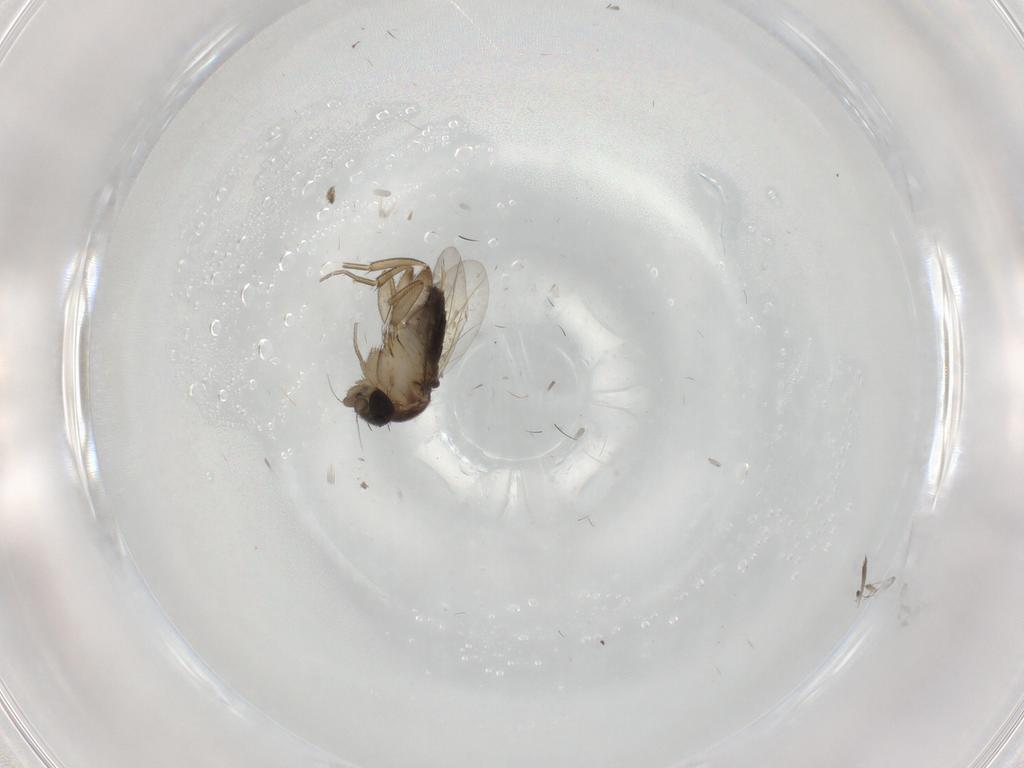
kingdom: Animalia
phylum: Arthropoda
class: Insecta
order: Diptera
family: Phoridae
